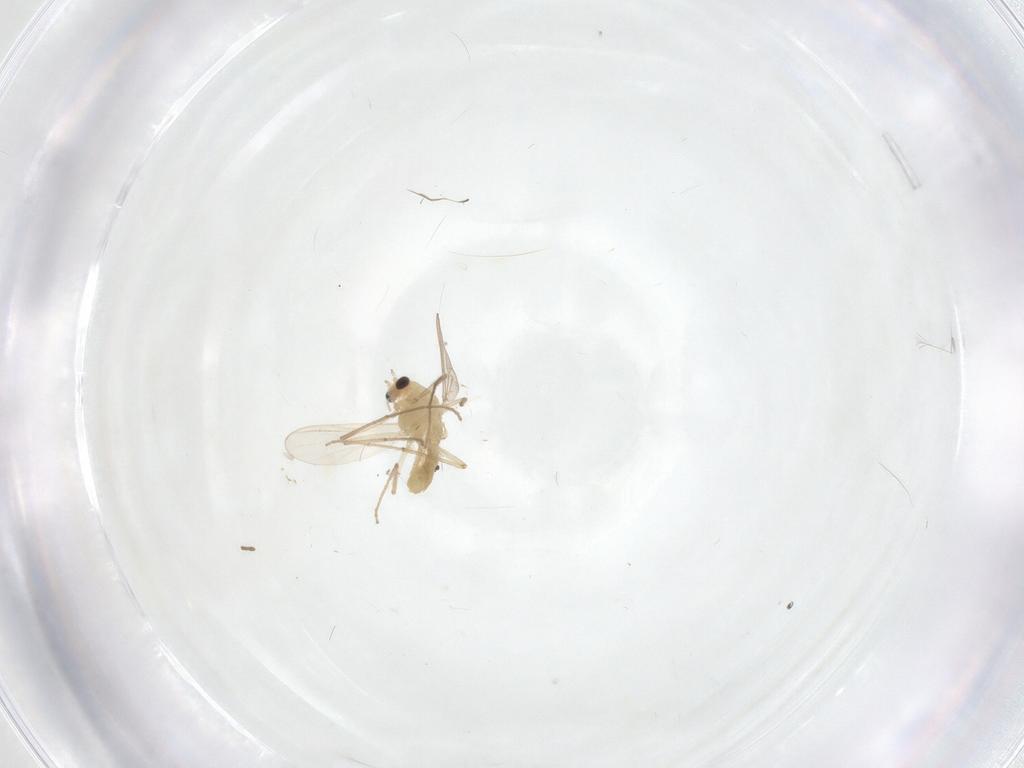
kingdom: Animalia
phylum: Arthropoda
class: Insecta
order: Diptera
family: Chironomidae
